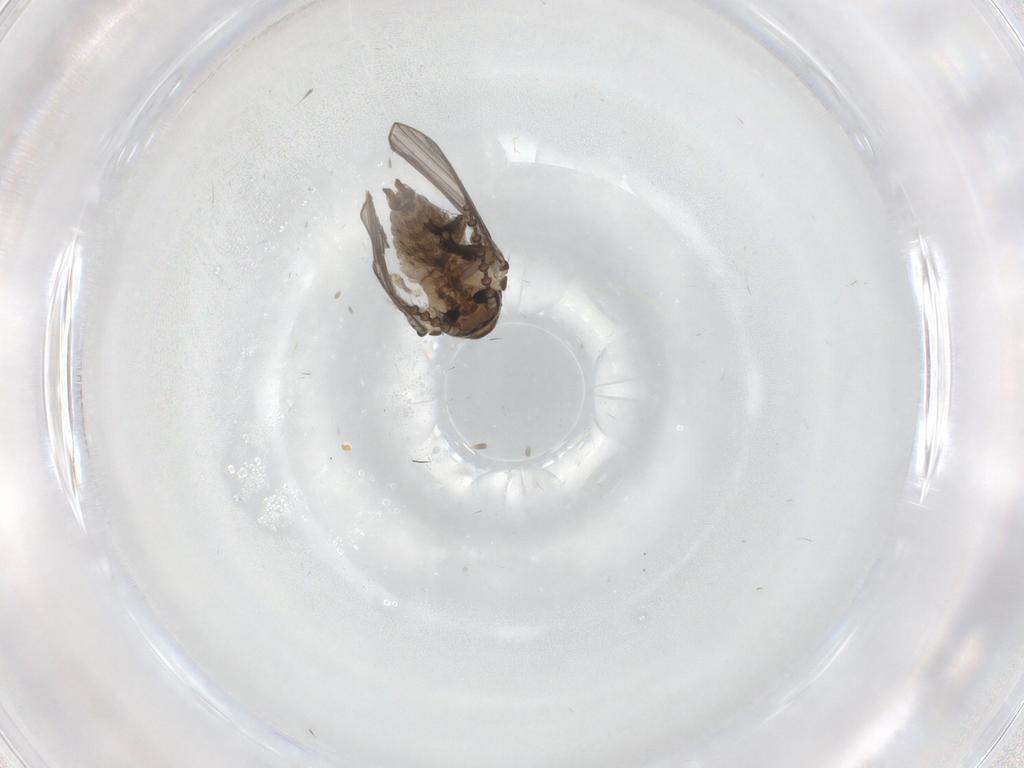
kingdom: Animalia
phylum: Arthropoda
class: Insecta
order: Diptera
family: Psychodidae
